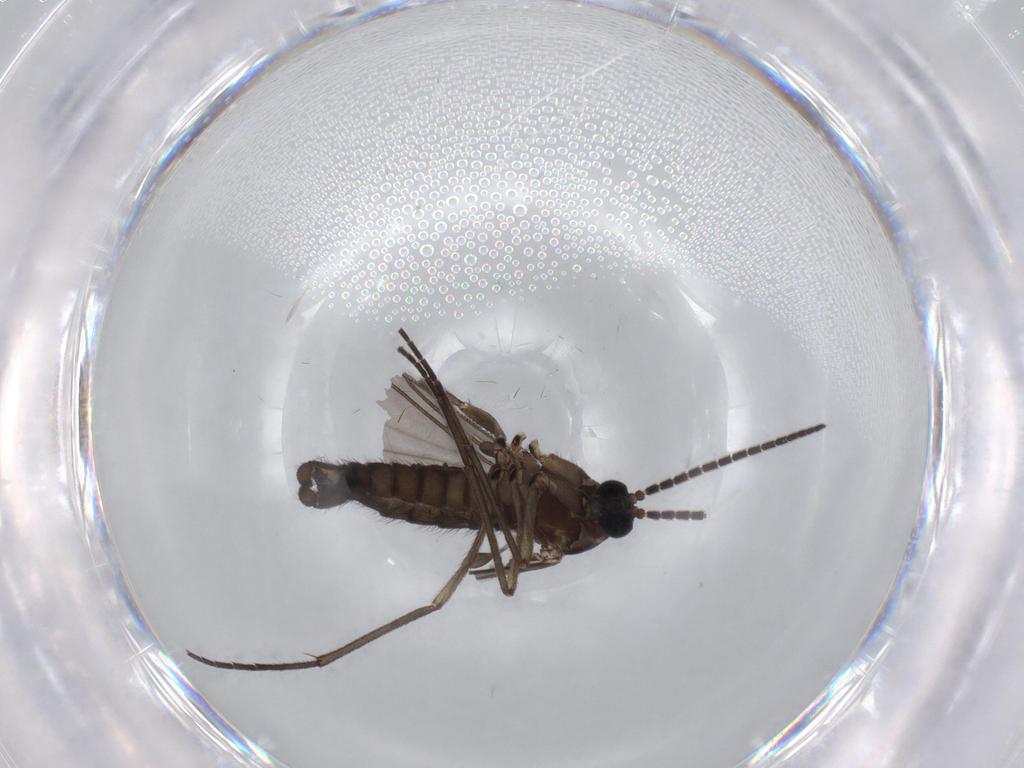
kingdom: Animalia
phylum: Arthropoda
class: Insecta
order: Diptera
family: Sciaridae
